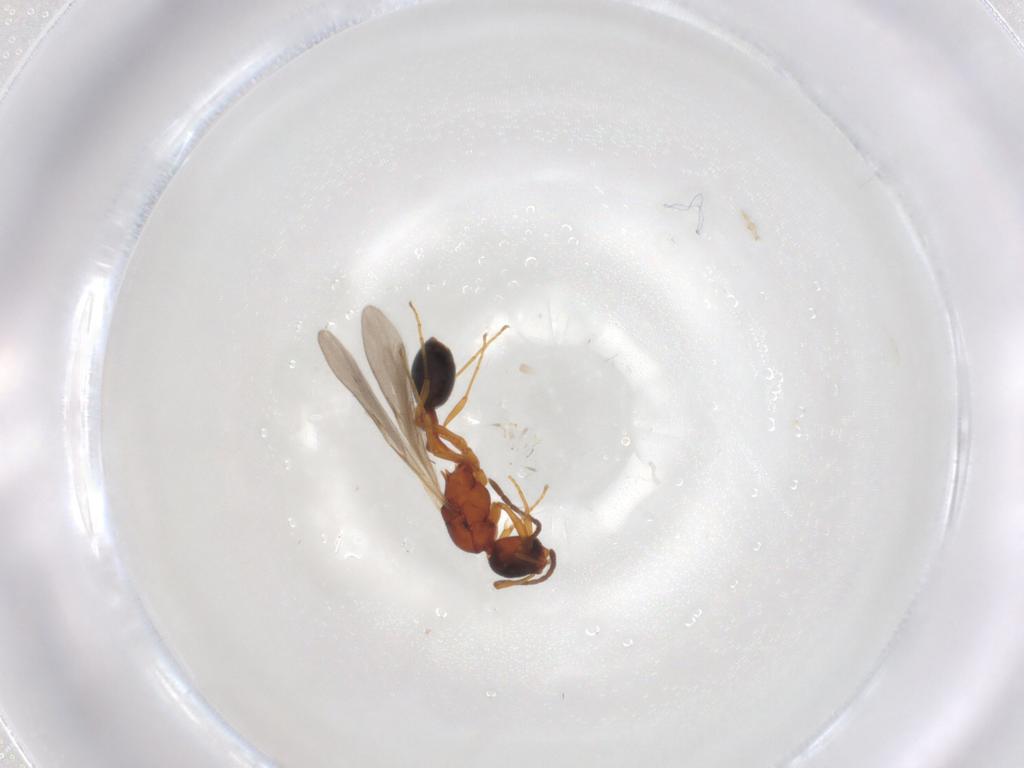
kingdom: Animalia
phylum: Arthropoda
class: Insecta
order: Hymenoptera
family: Formicidae
